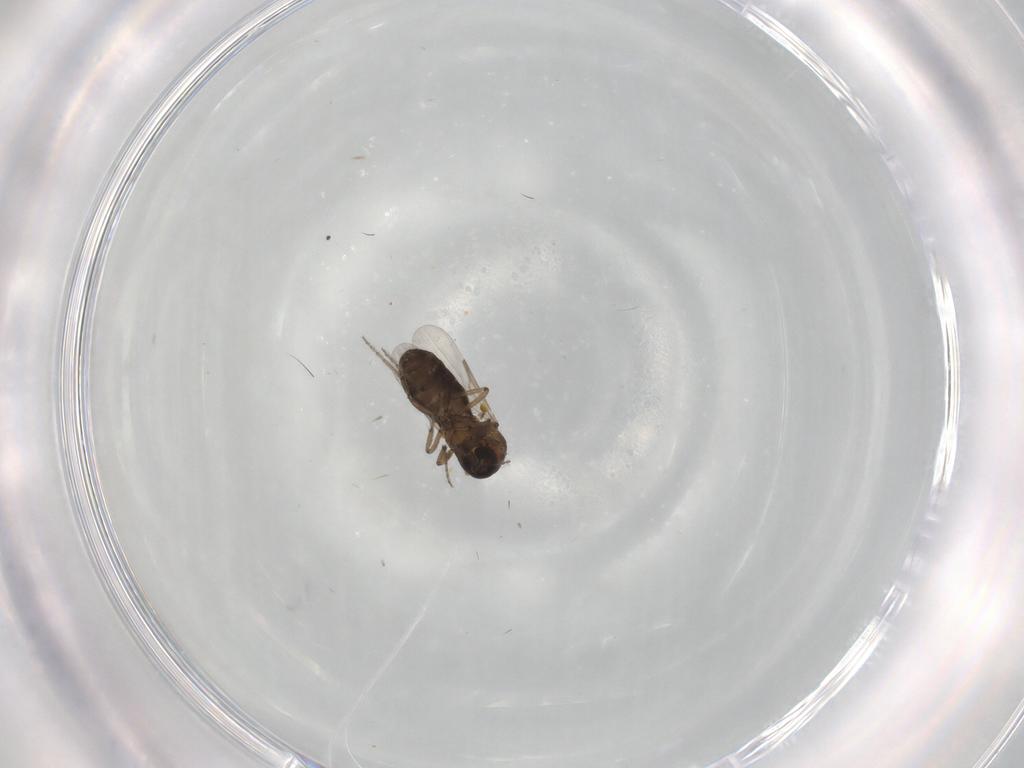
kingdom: Animalia
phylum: Arthropoda
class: Insecta
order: Diptera
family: Ceratopogonidae
